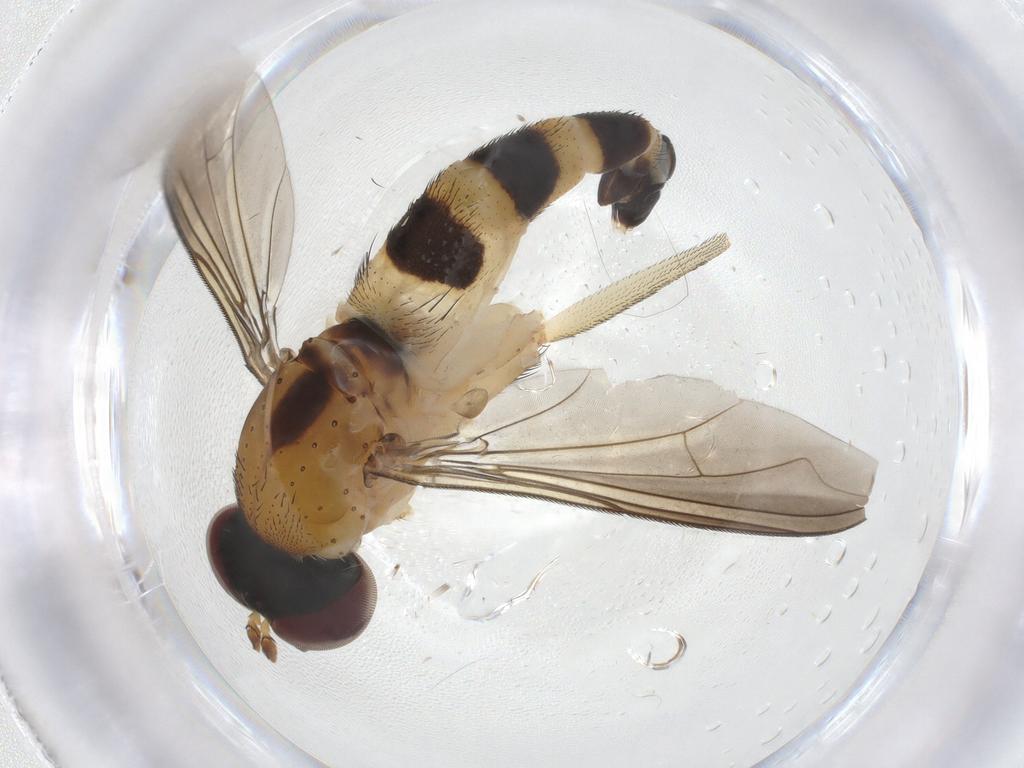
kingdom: Animalia
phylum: Arthropoda
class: Insecta
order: Diptera
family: Dolichopodidae
